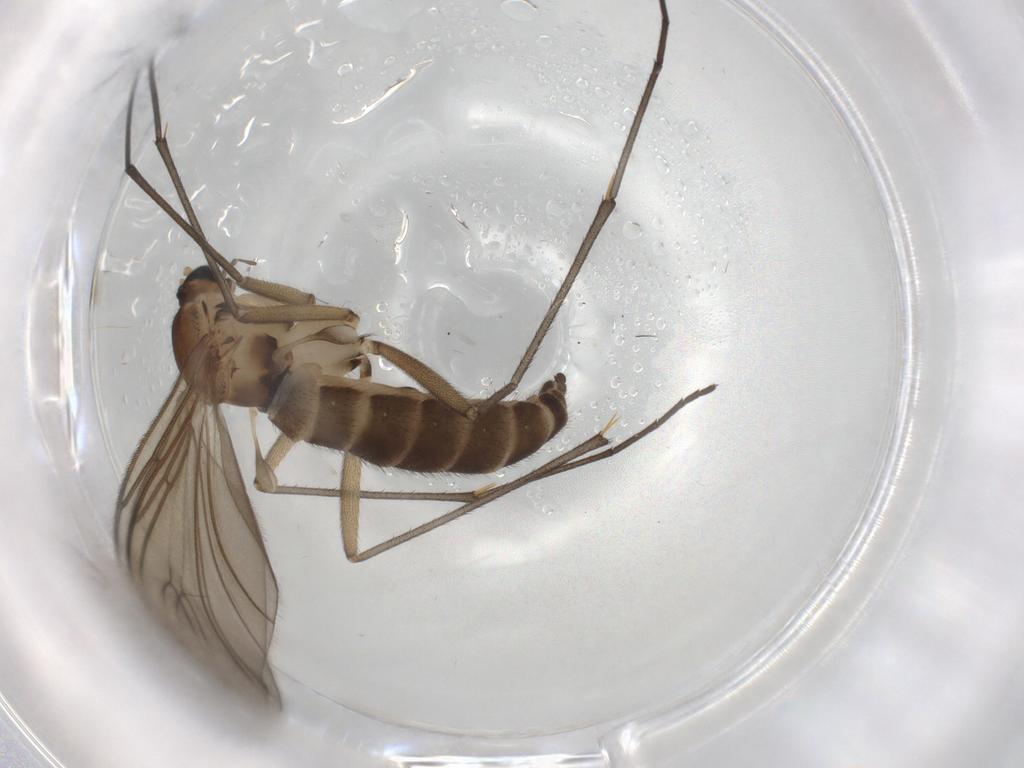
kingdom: Animalia
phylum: Arthropoda
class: Insecta
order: Diptera
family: Sciaridae
